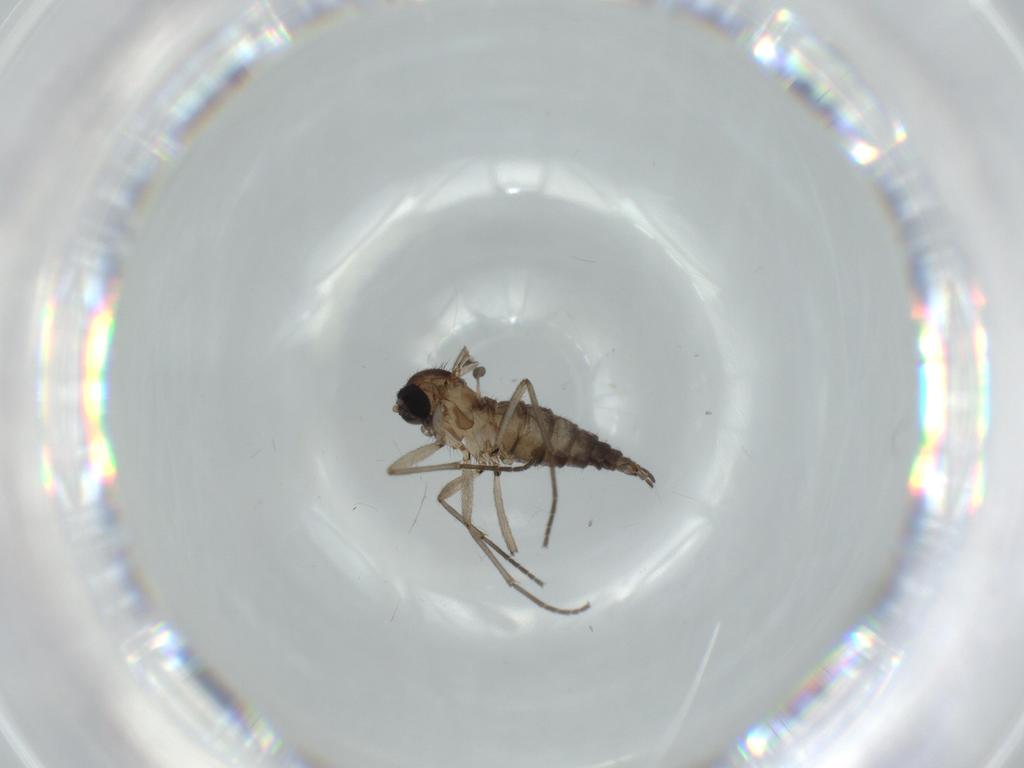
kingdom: Animalia
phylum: Arthropoda
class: Insecta
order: Diptera
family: Sciaridae
